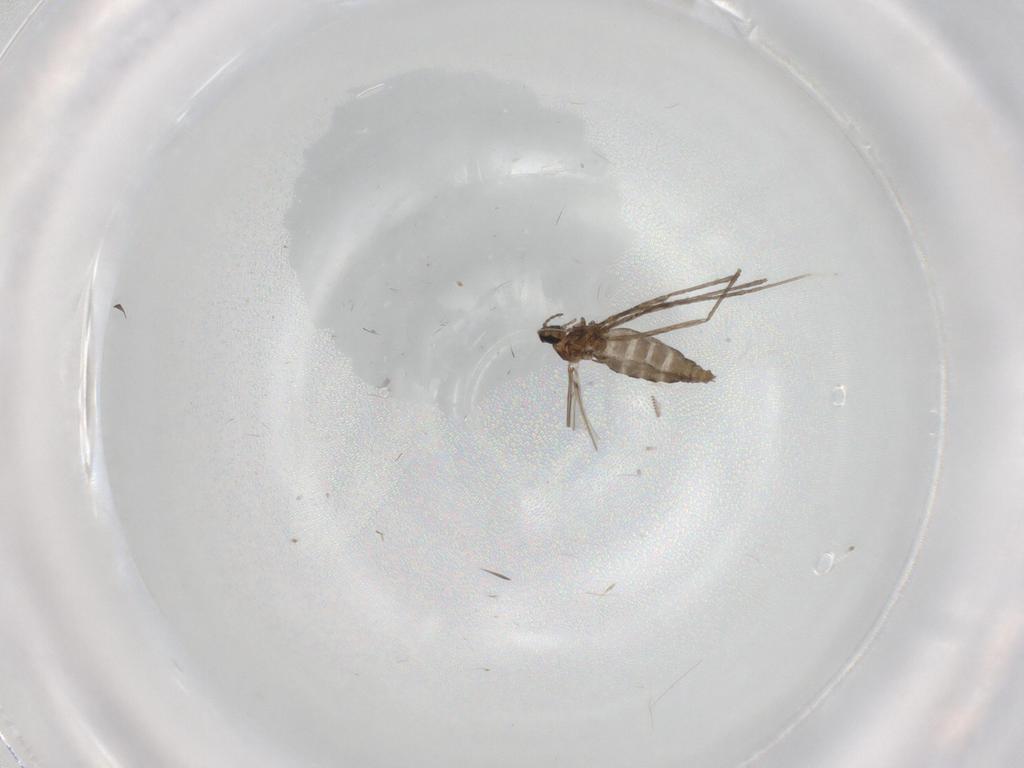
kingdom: Animalia
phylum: Arthropoda
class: Insecta
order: Diptera
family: Cecidomyiidae
